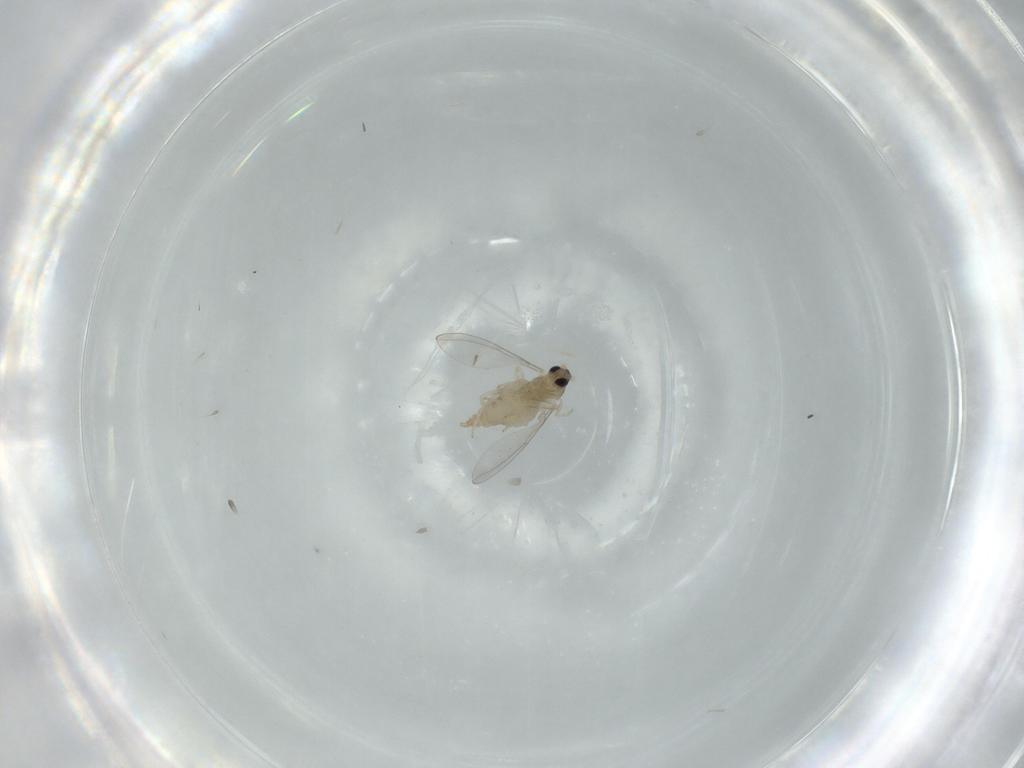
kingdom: Animalia
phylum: Arthropoda
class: Insecta
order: Diptera
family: Cecidomyiidae
